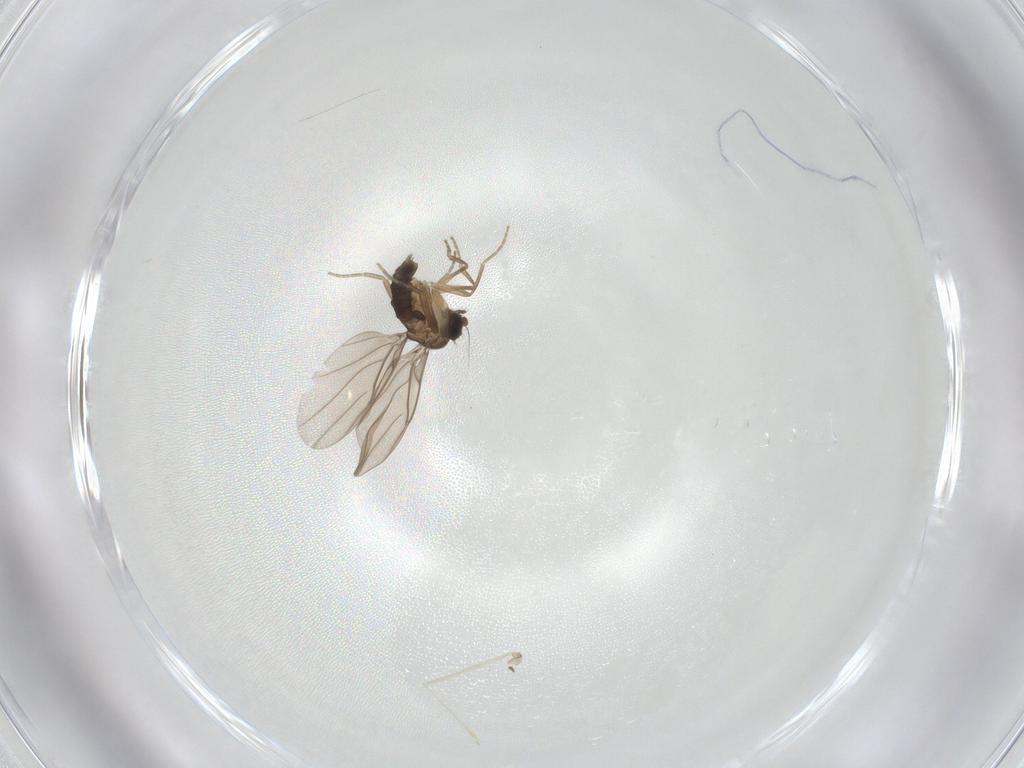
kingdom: Animalia
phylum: Arthropoda
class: Insecta
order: Diptera
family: Phoridae
